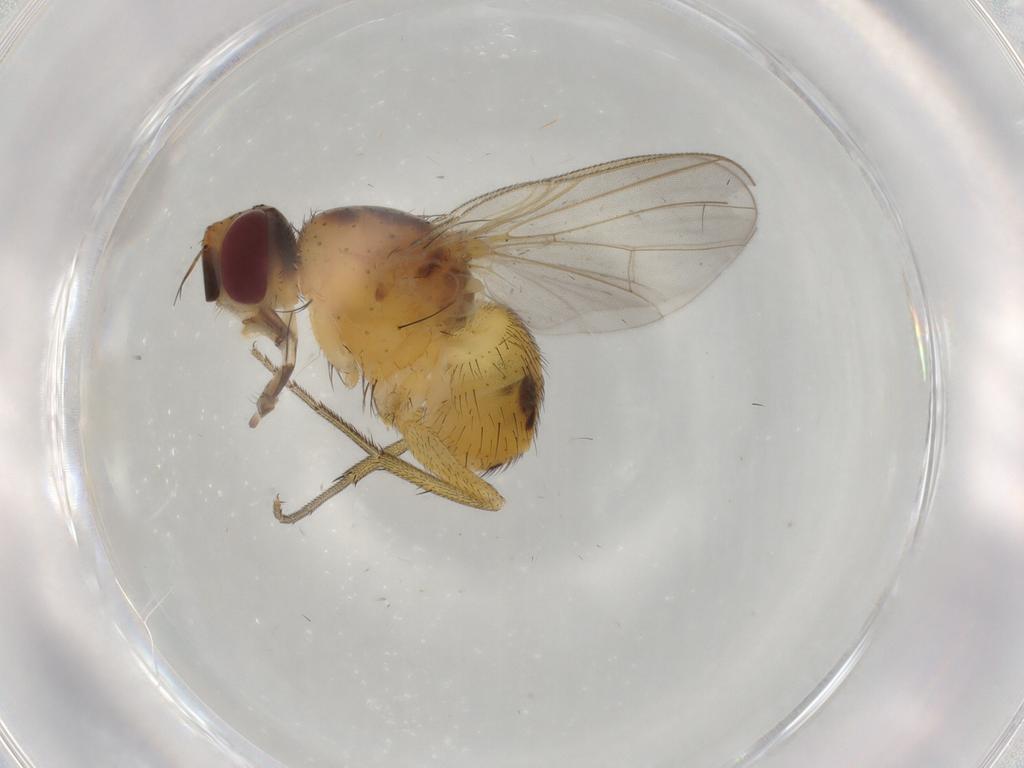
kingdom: Animalia
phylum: Arthropoda
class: Insecta
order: Diptera
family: Muscidae
